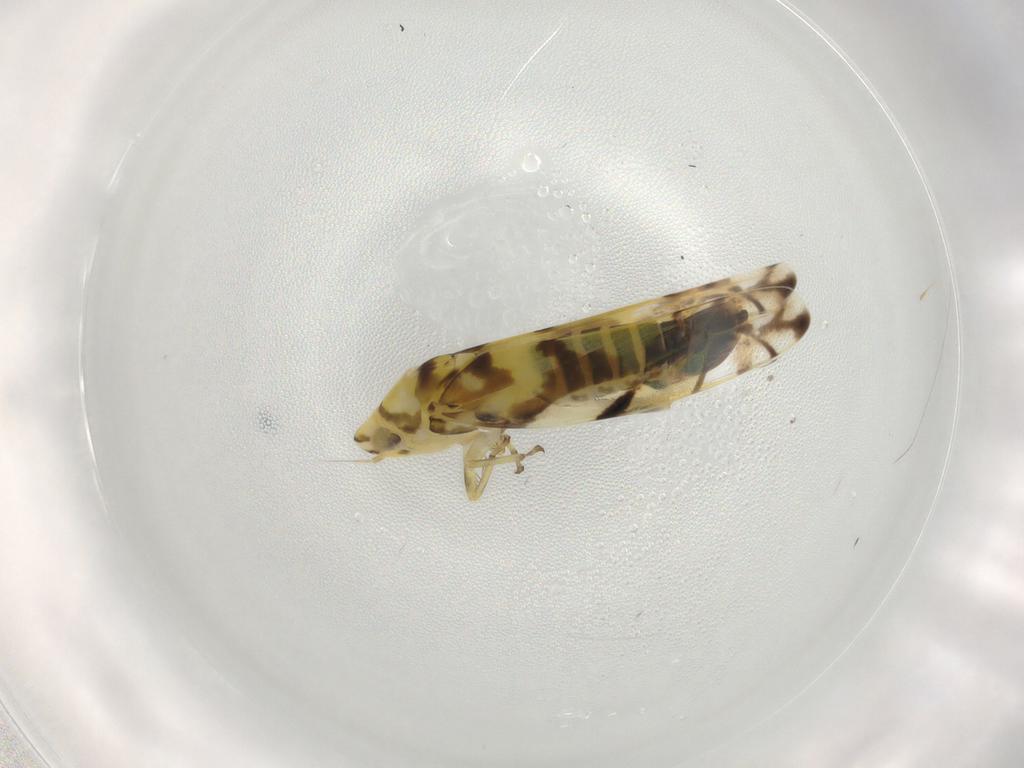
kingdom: Animalia
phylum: Arthropoda
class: Insecta
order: Hemiptera
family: Cicadellidae
